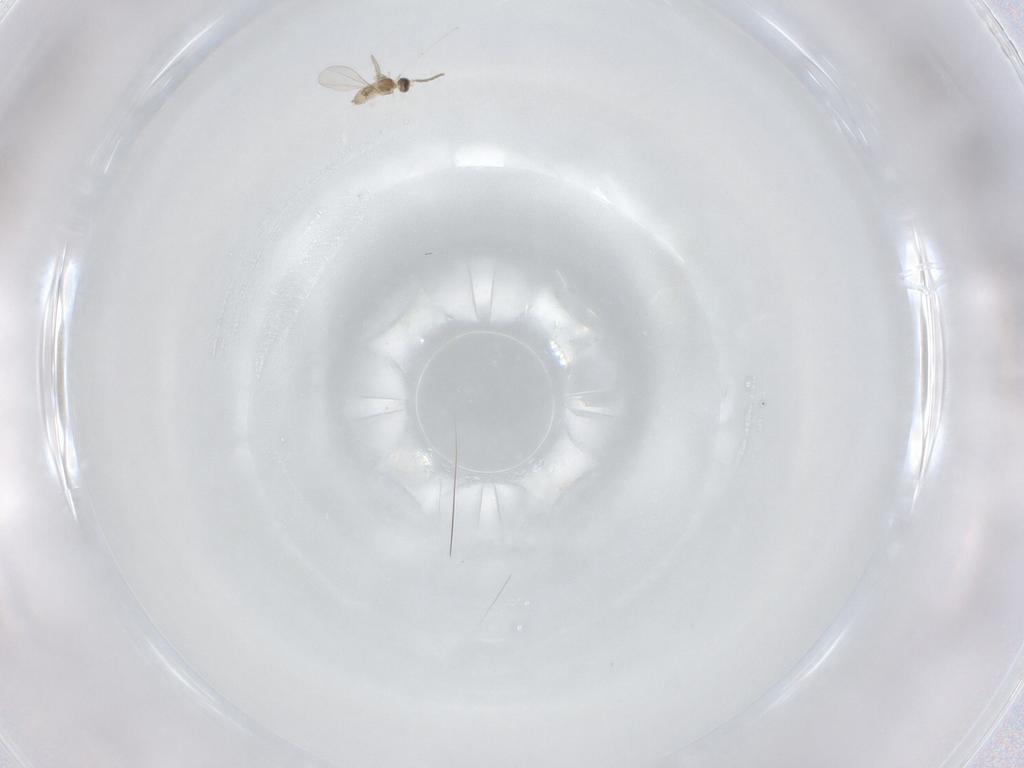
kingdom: Animalia
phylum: Arthropoda
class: Insecta
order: Diptera
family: Cecidomyiidae
